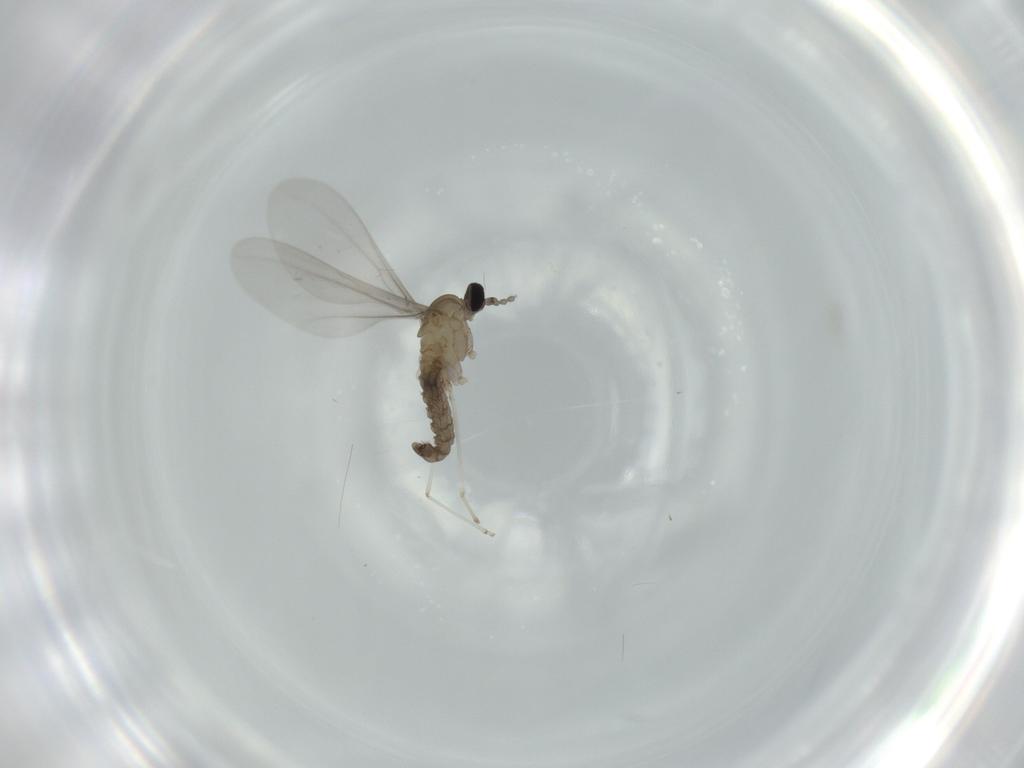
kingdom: Animalia
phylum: Arthropoda
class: Insecta
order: Diptera
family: Cecidomyiidae
